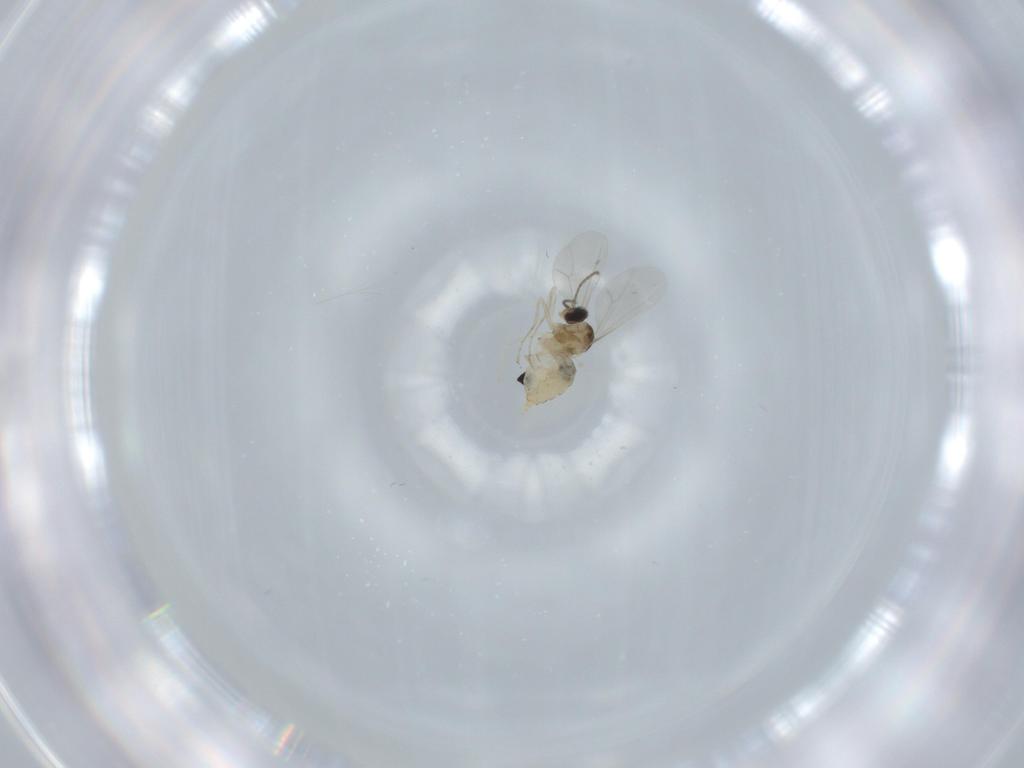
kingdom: Animalia
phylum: Arthropoda
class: Insecta
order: Diptera
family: Cecidomyiidae
